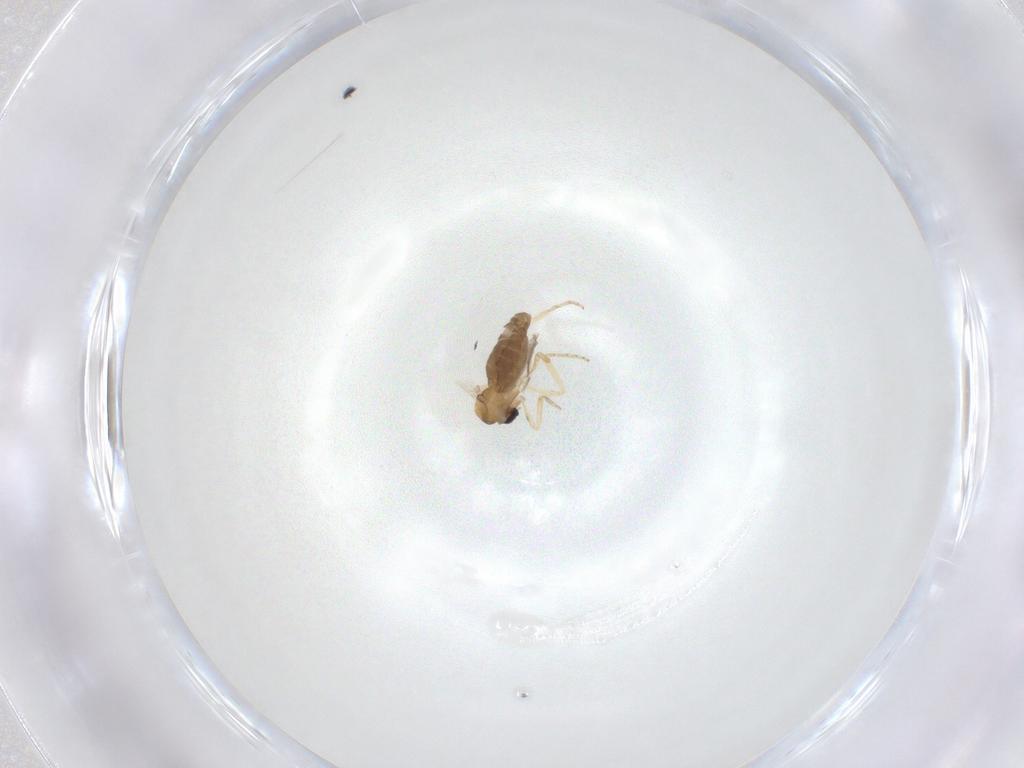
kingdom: Animalia
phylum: Arthropoda
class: Insecta
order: Diptera
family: Ceratopogonidae
